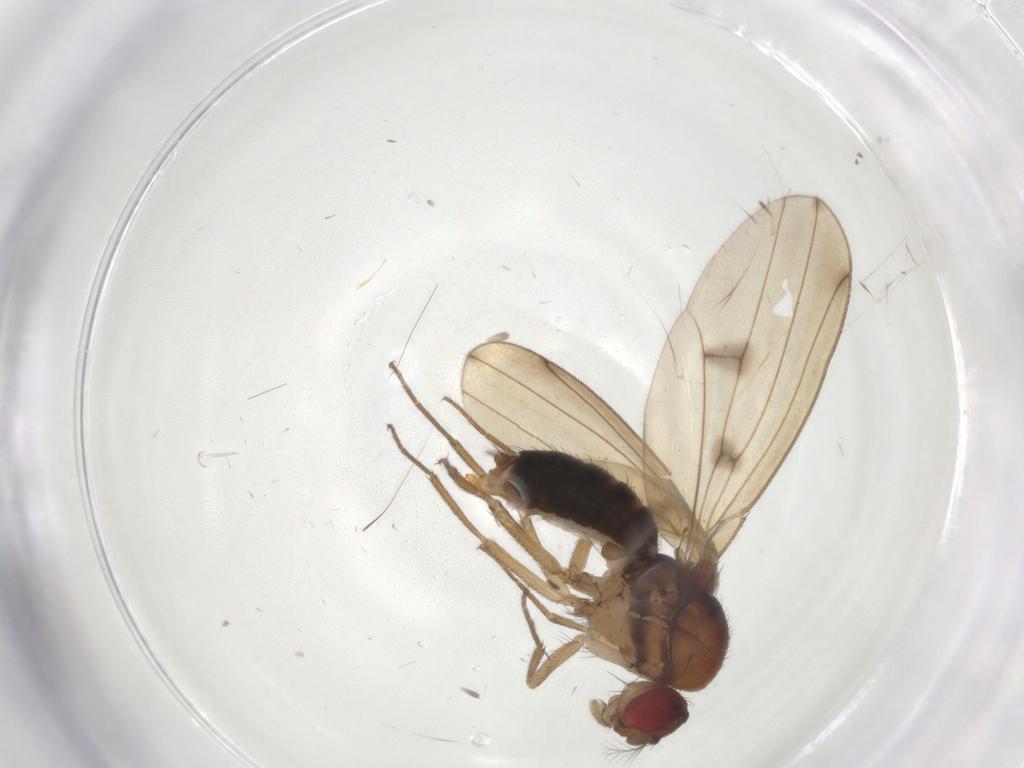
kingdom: Animalia
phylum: Arthropoda
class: Insecta
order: Diptera
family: Drosophilidae
